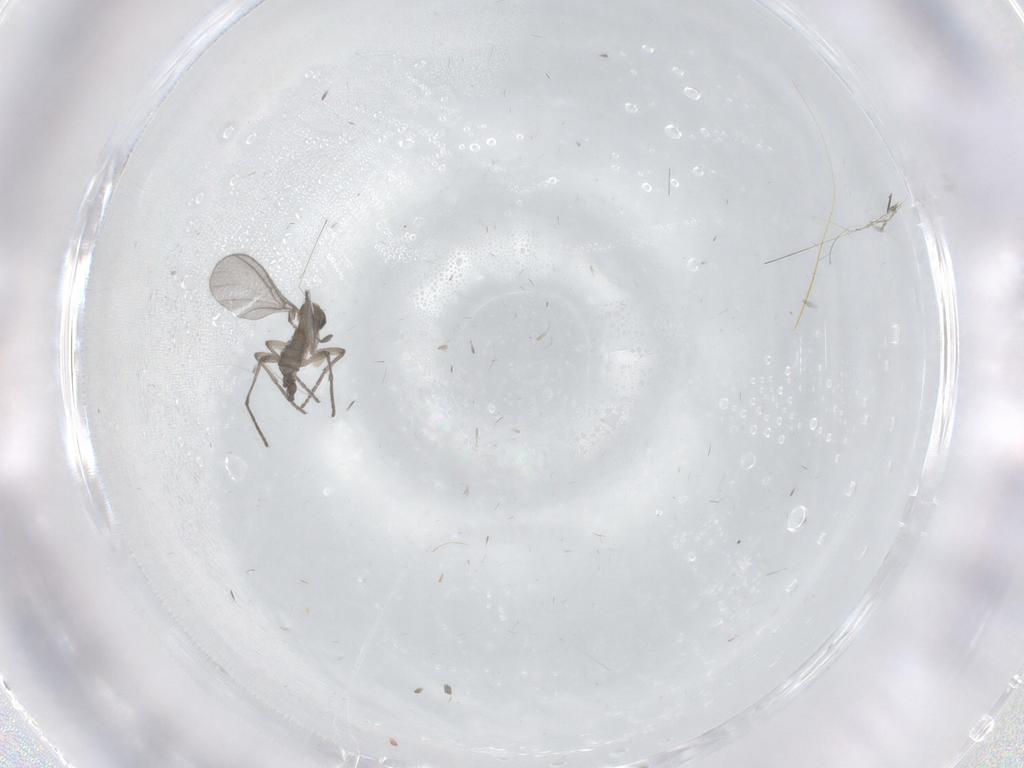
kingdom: Animalia
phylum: Arthropoda
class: Insecta
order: Diptera
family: Sciaridae
